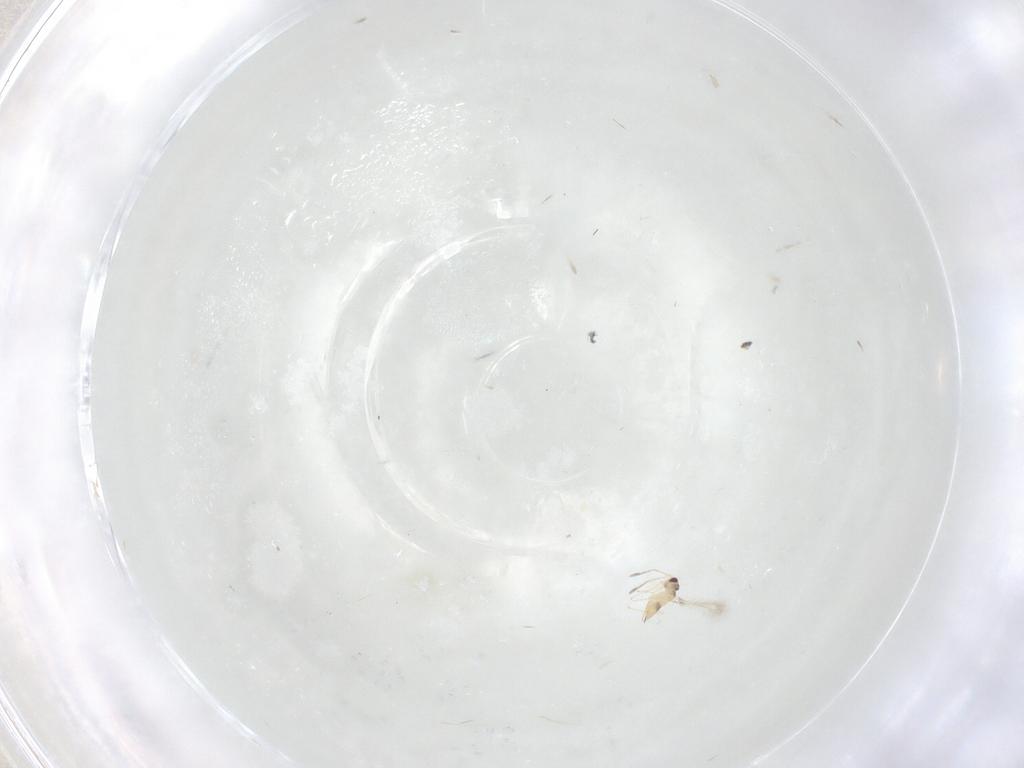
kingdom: Animalia
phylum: Arthropoda
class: Insecta
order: Hymenoptera
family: Mymaridae
